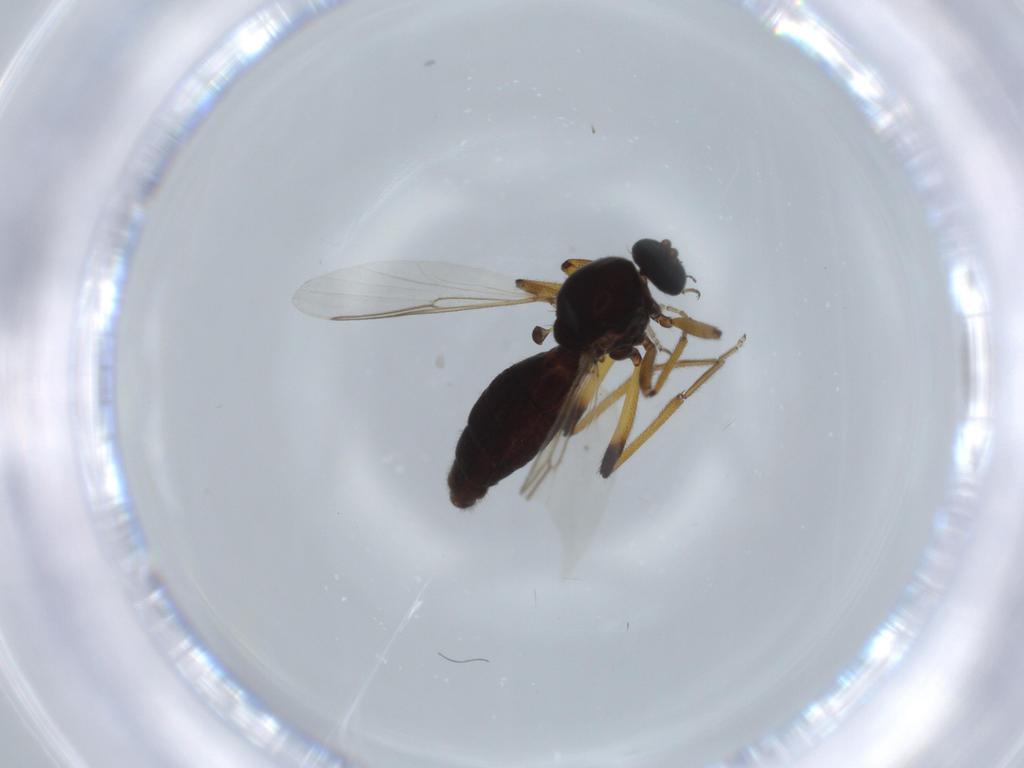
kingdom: Animalia
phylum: Arthropoda
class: Insecta
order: Diptera
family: Ceratopogonidae
